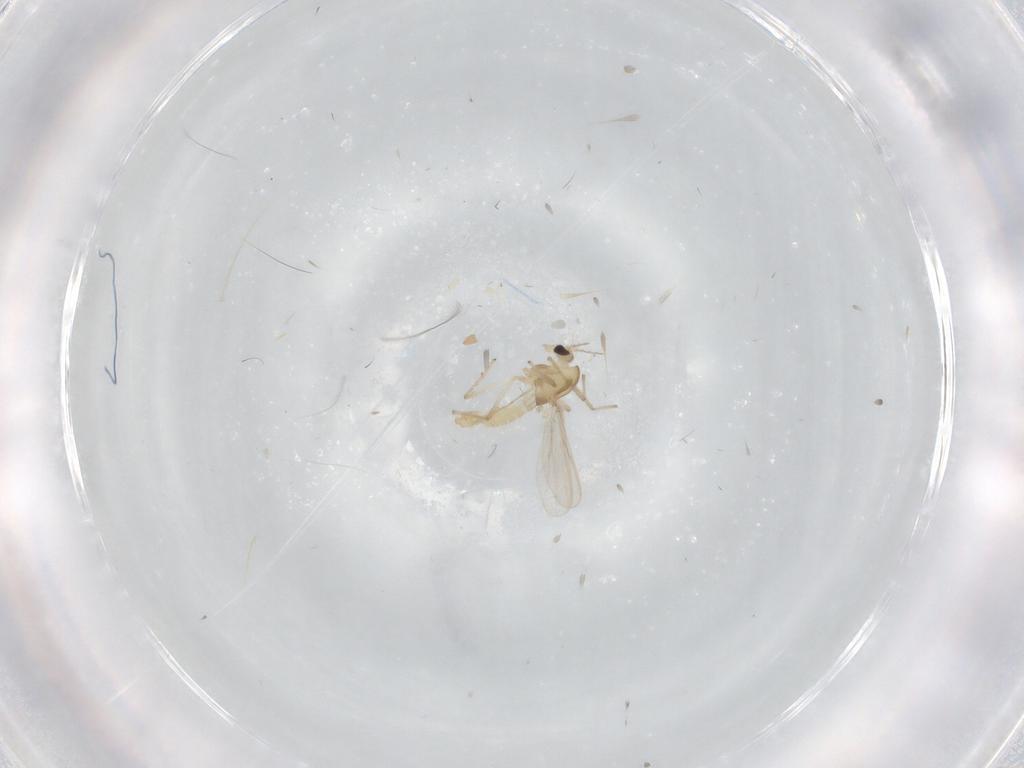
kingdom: Animalia
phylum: Arthropoda
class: Insecta
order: Diptera
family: Chironomidae
